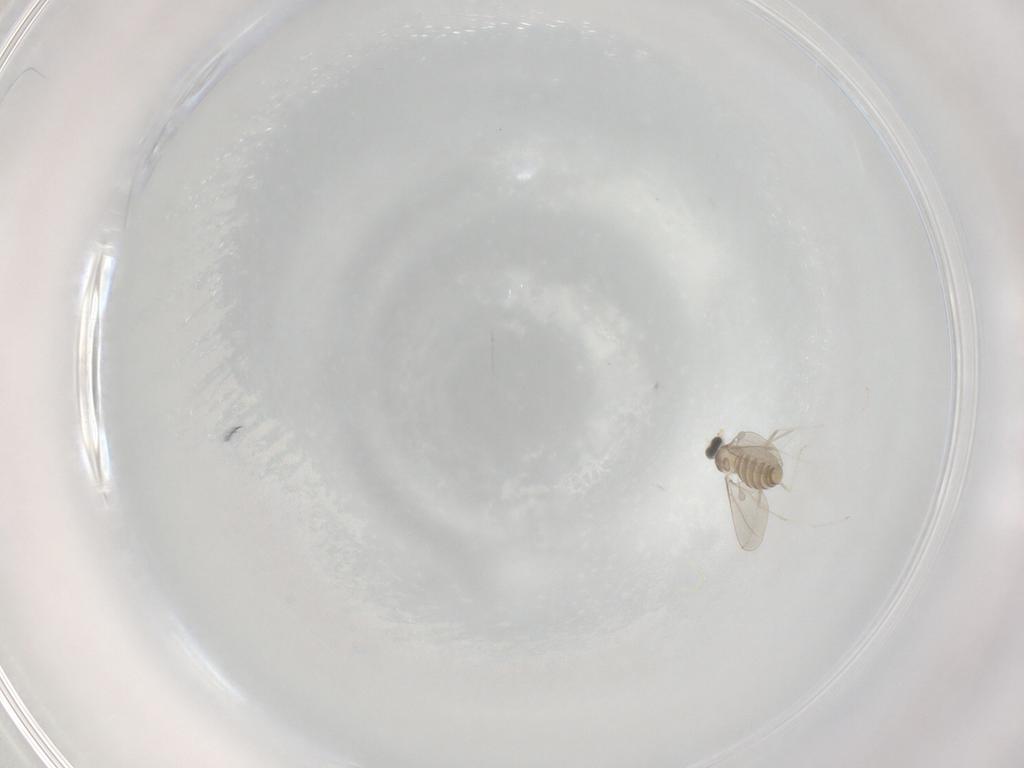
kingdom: Animalia
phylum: Arthropoda
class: Insecta
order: Diptera
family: Cecidomyiidae
